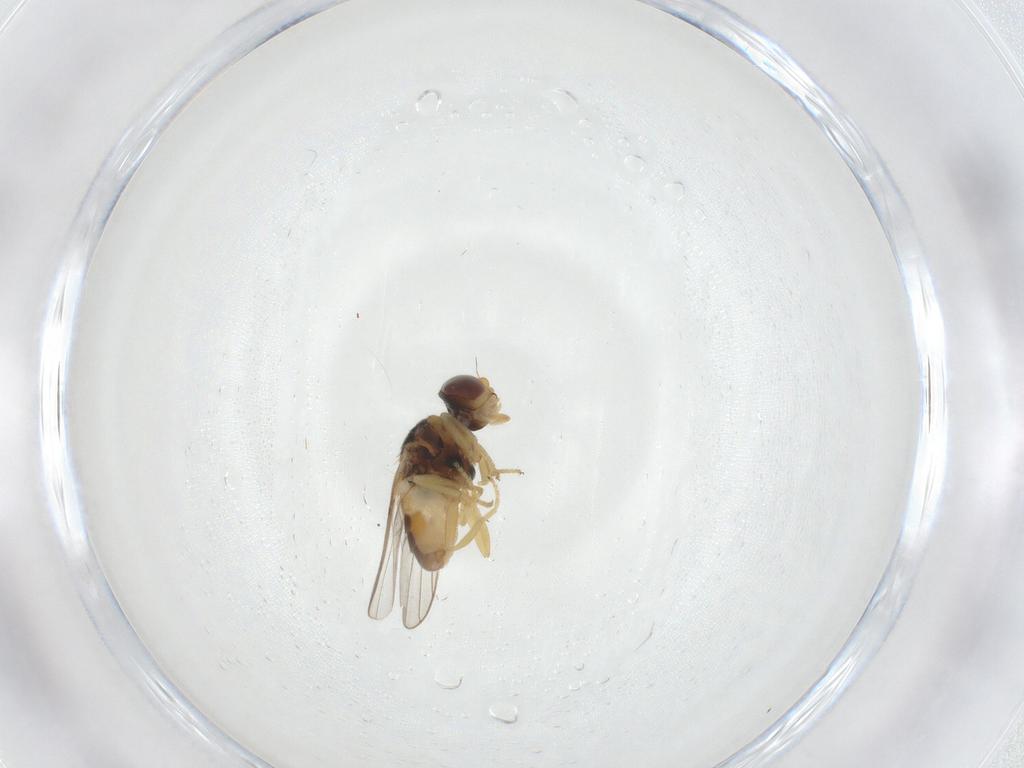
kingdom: Animalia
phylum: Arthropoda
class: Insecta
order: Diptera
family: Chloropidae
